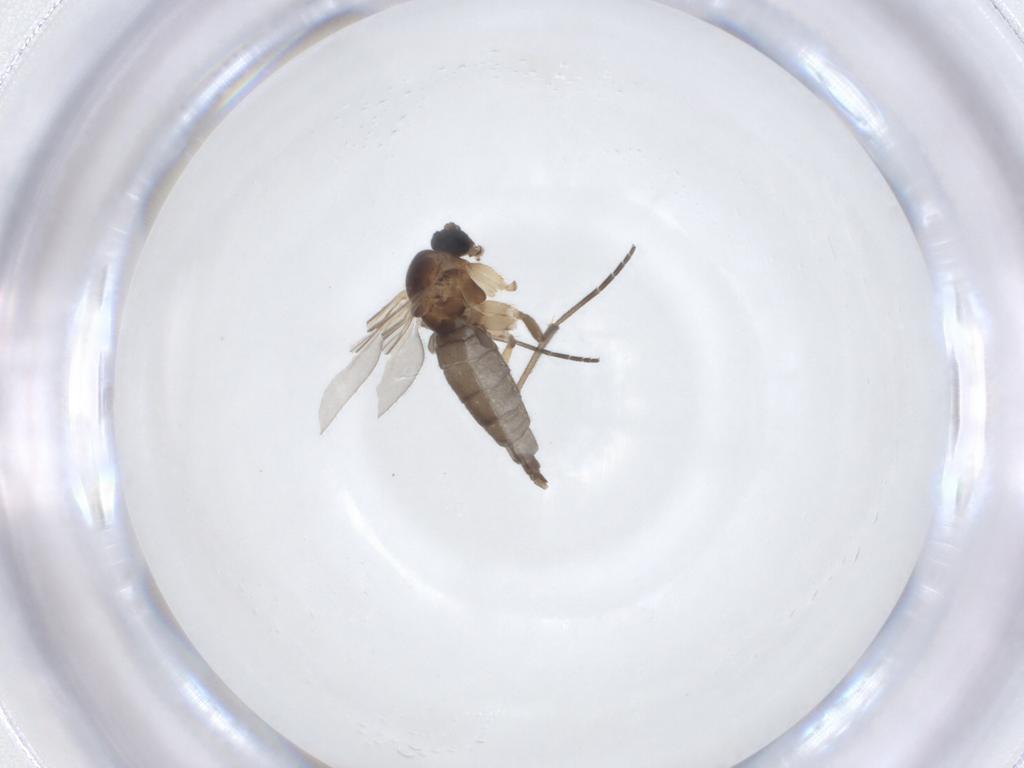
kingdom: Animalia
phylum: Arthropoda
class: Insecta
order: Diptera
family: Sciaridae
